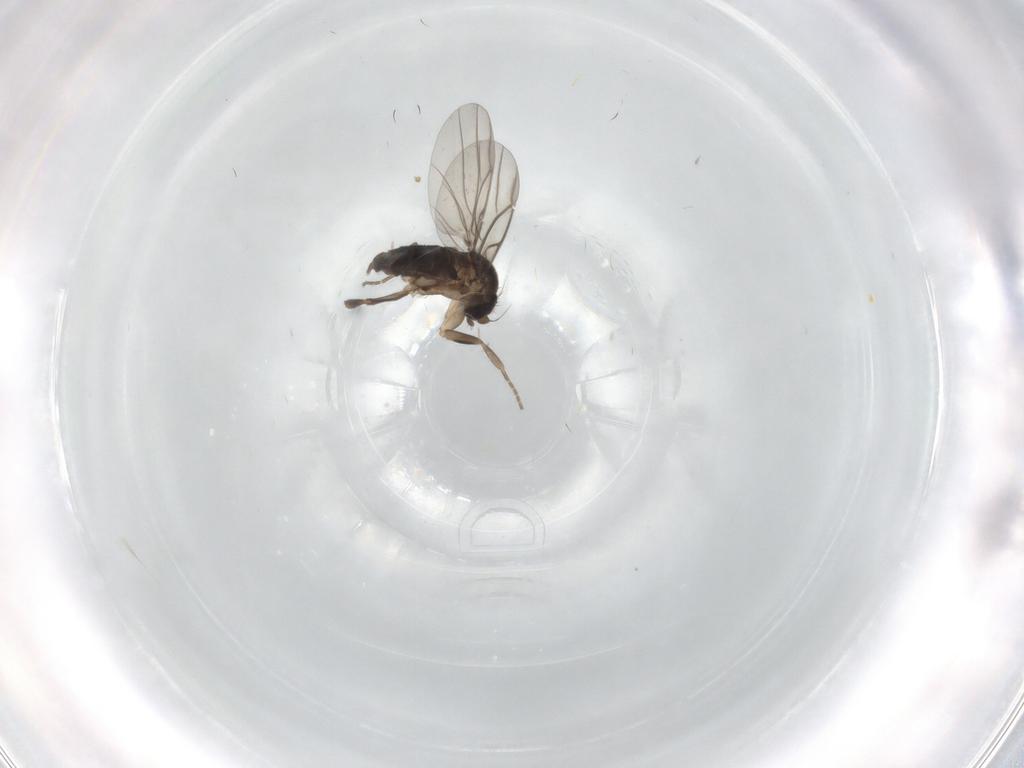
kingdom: Animalia
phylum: Arthropoda
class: Insecta
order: Diptera
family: Phoridae
